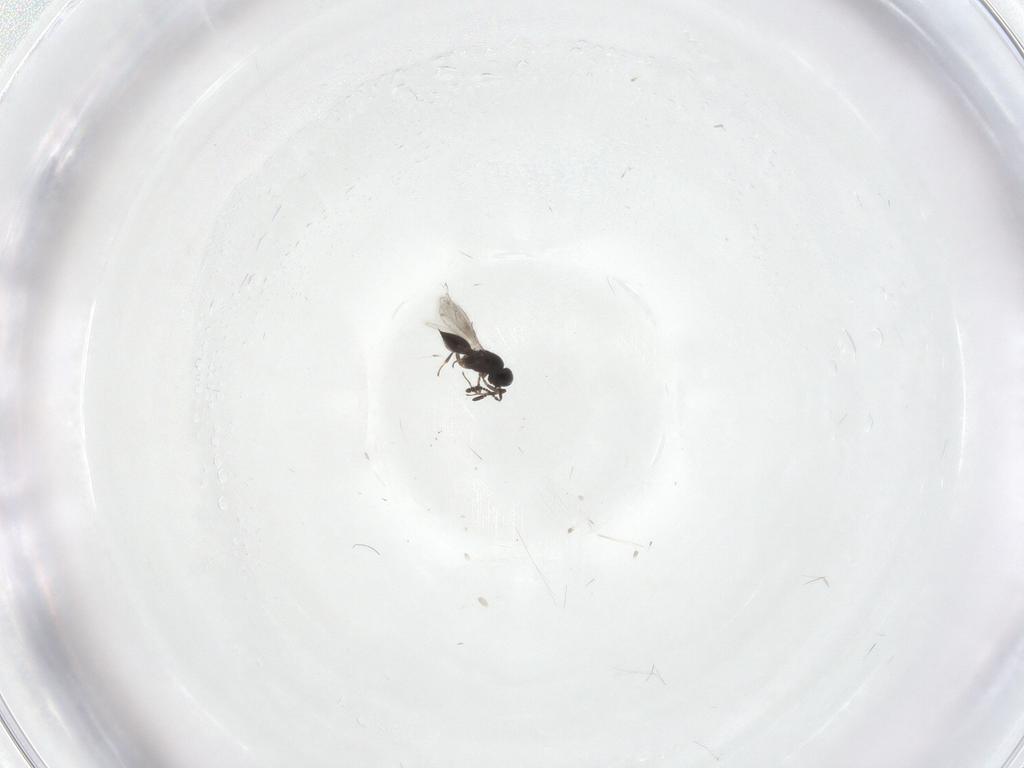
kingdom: Animalia
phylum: Arthropoda
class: Insecta
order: Hymenoptera
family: Scelionidae
